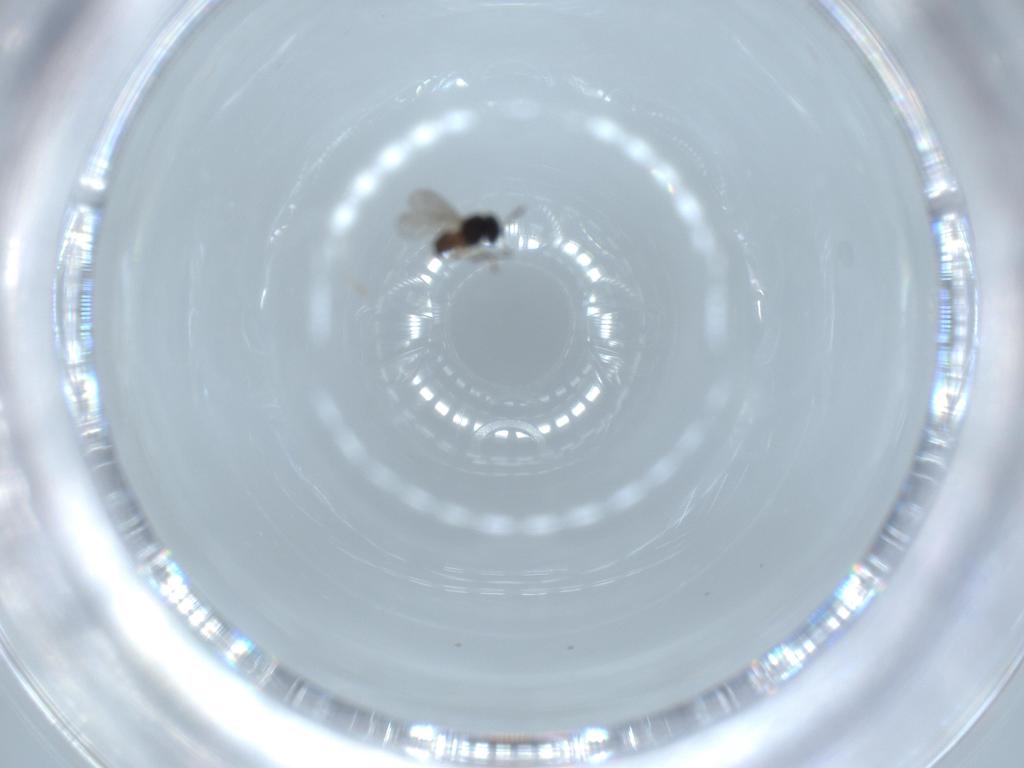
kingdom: Animalia
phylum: Arthropoda
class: Insecta
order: Hymenoptera
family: Scelionidae
